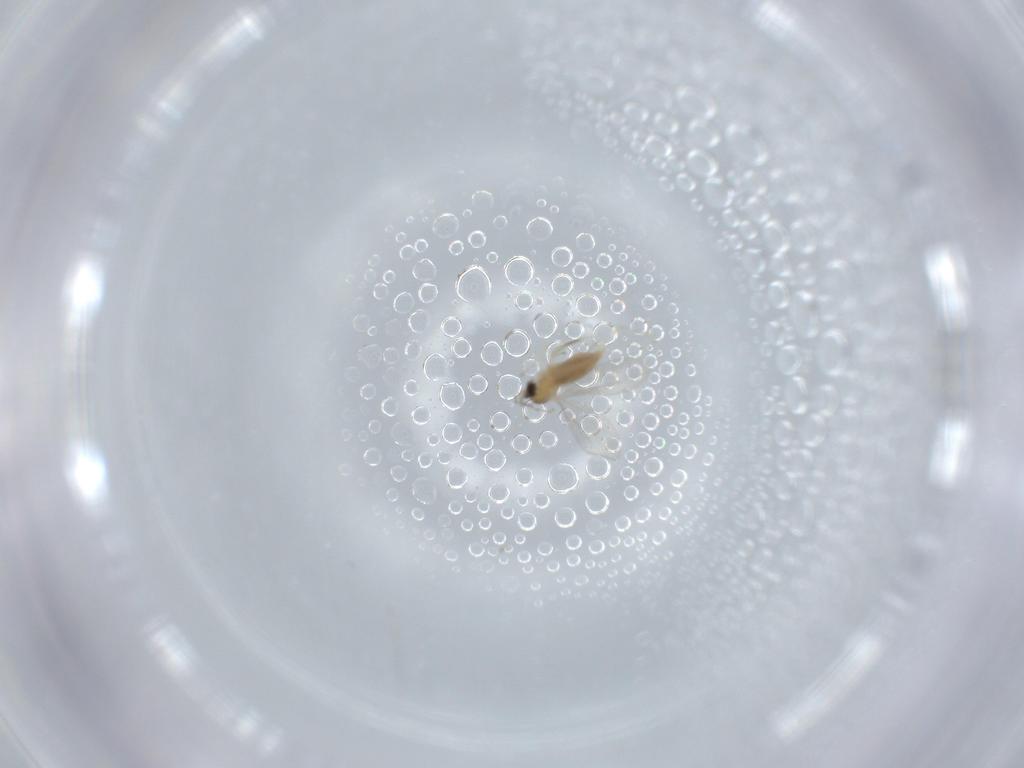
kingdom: Animalia
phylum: Arthropoda
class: Insecta
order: Diptera
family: Cecidomyiidae
